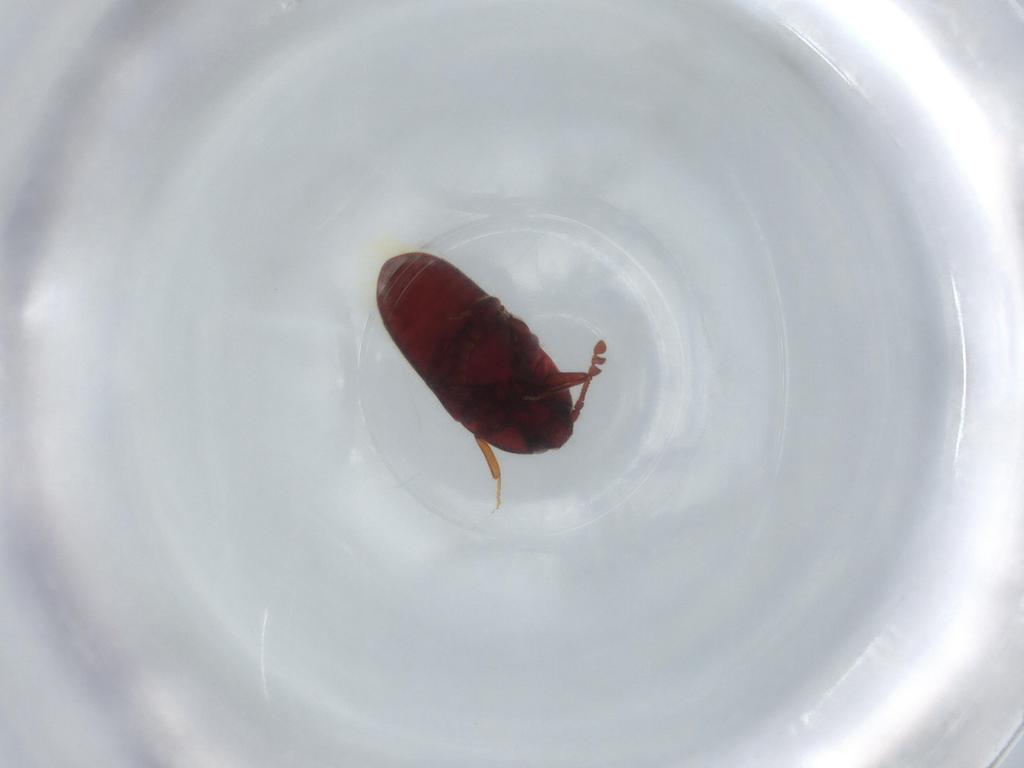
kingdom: Animalia
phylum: Arthropoda
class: Insecta
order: Coleoptera
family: Throscidae
